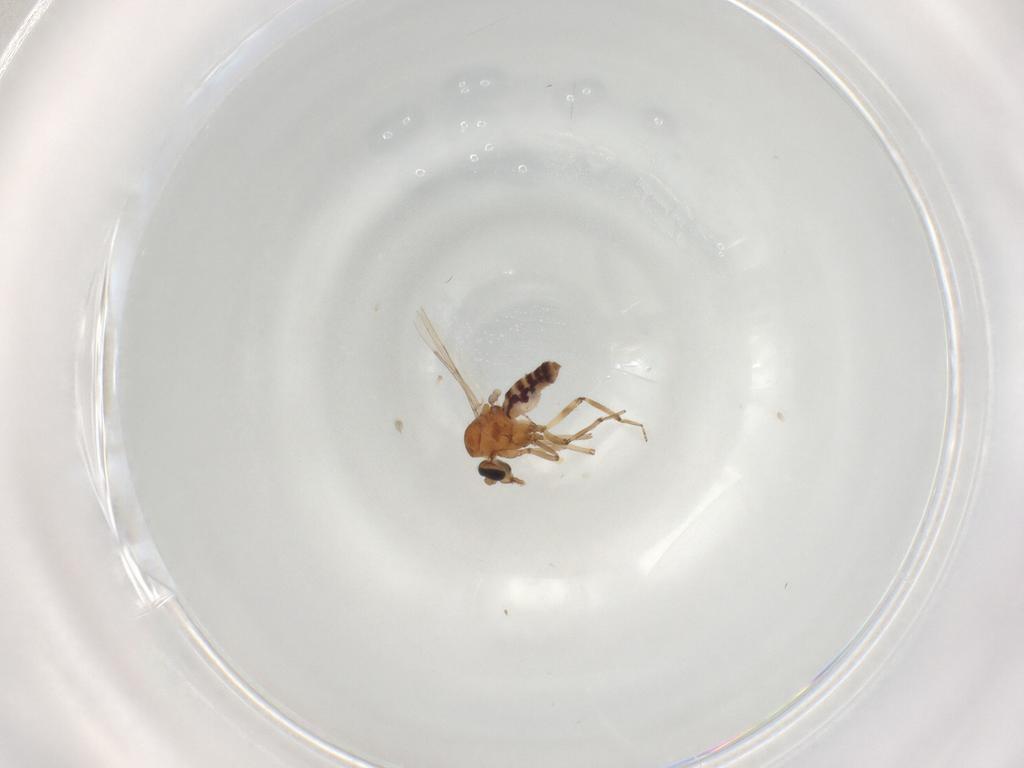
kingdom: Animalia
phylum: Arthropoda
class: Insecta
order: Diptera
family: Ceratopogonidae
